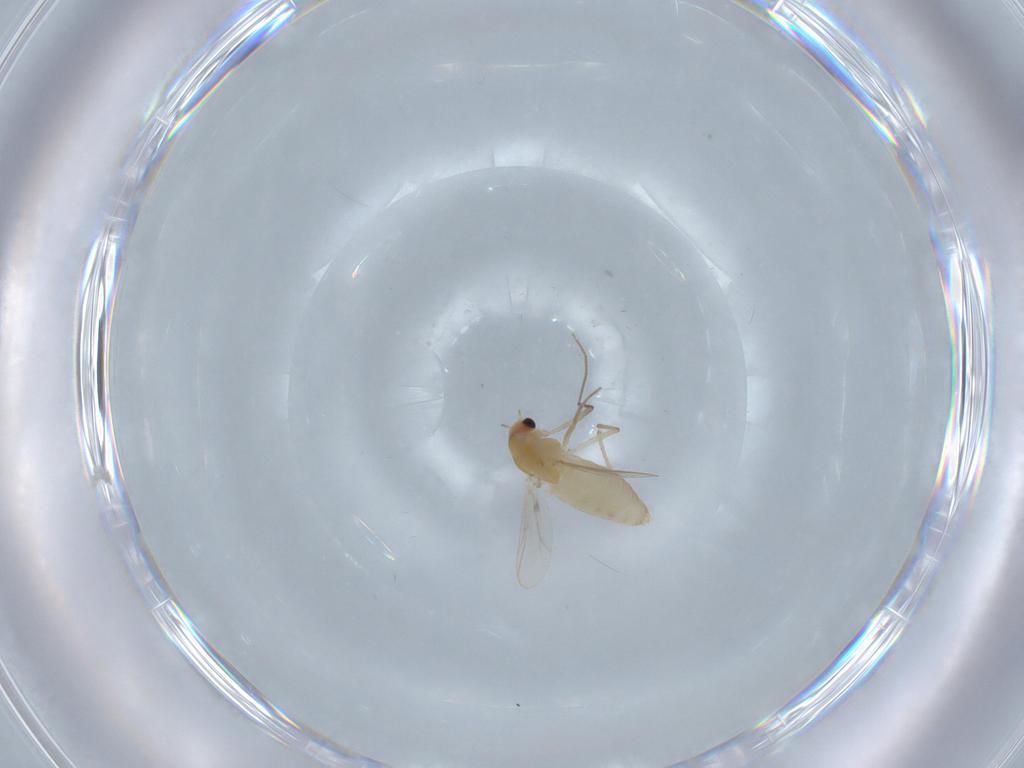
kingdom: Animalia
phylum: Arthropoda
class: Insecta
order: Diptera
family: Chironomidae
